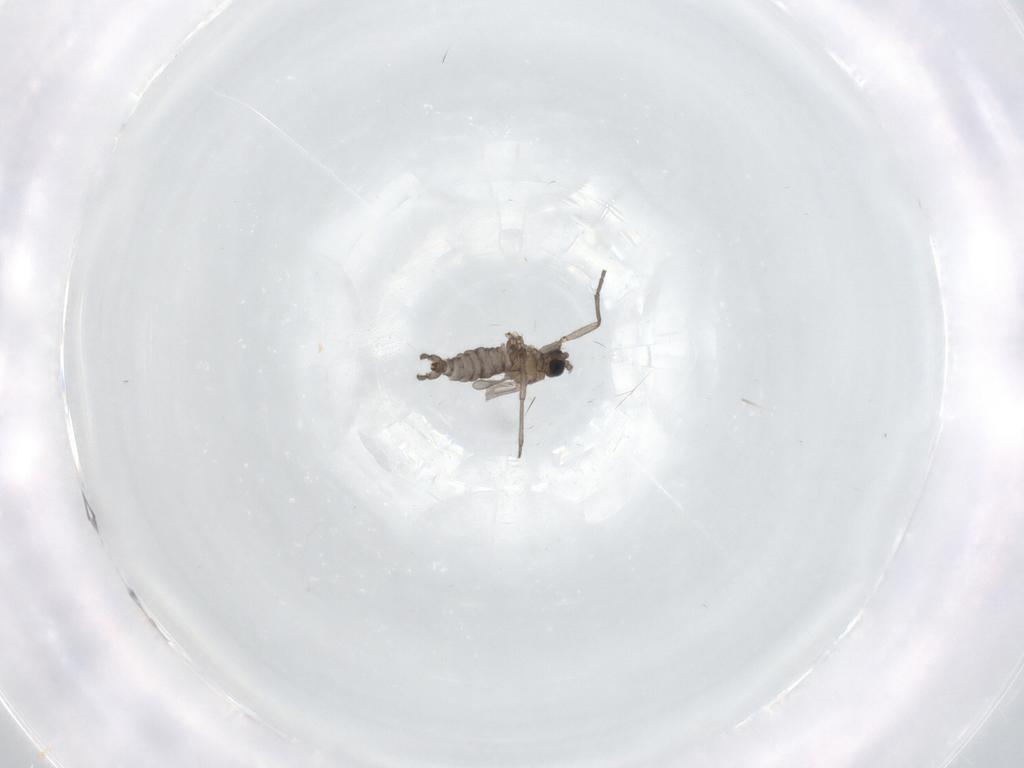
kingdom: Animalia
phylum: Arthropoda
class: Insecta
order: Diptera
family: Sciaridae
